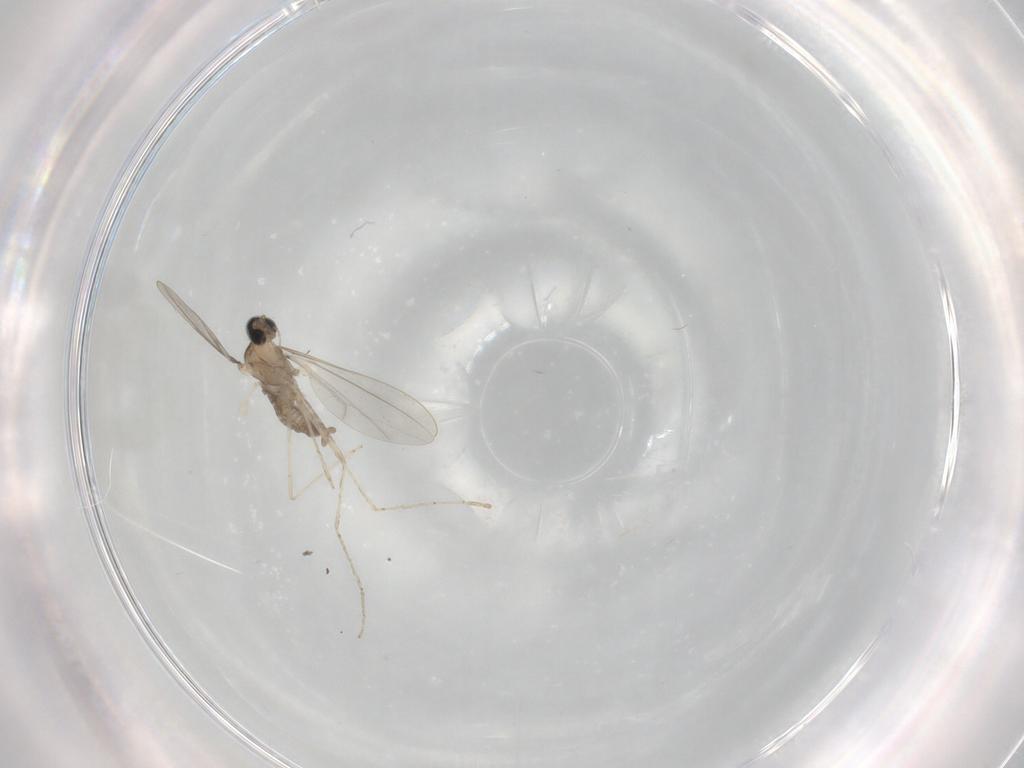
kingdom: Animalia
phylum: Arthropoda
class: Insecta
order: Diptera
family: Cecidomyiidae
